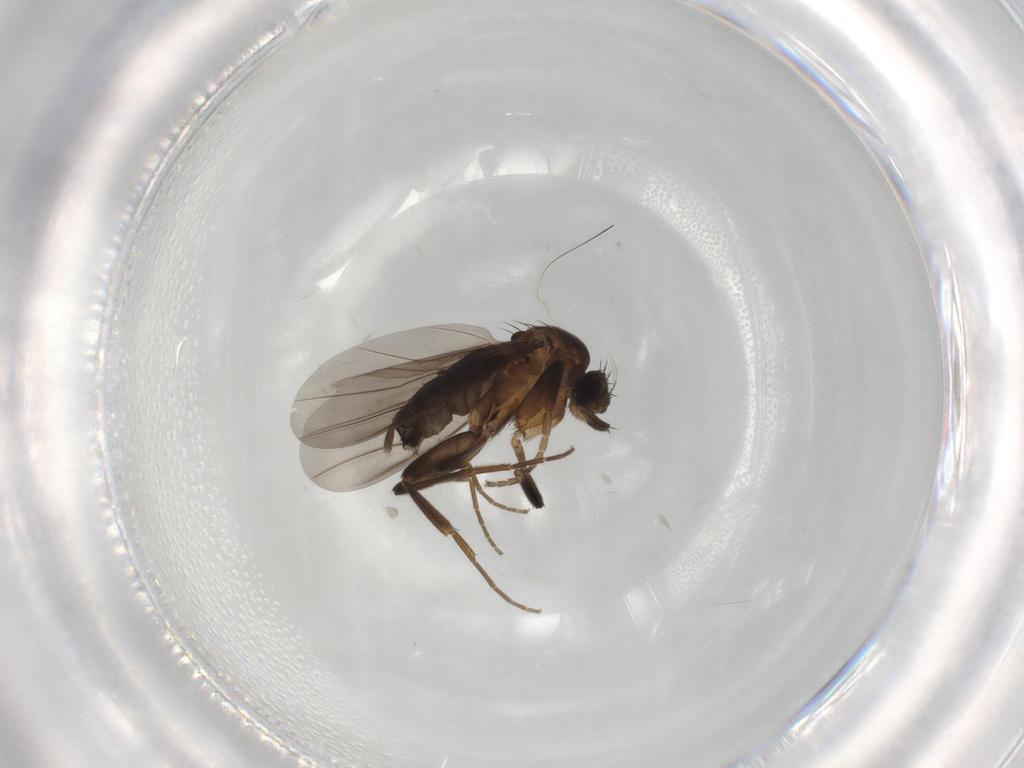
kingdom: Animalia
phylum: Arthropoda
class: Insecta
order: Diptera
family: Phoridae
